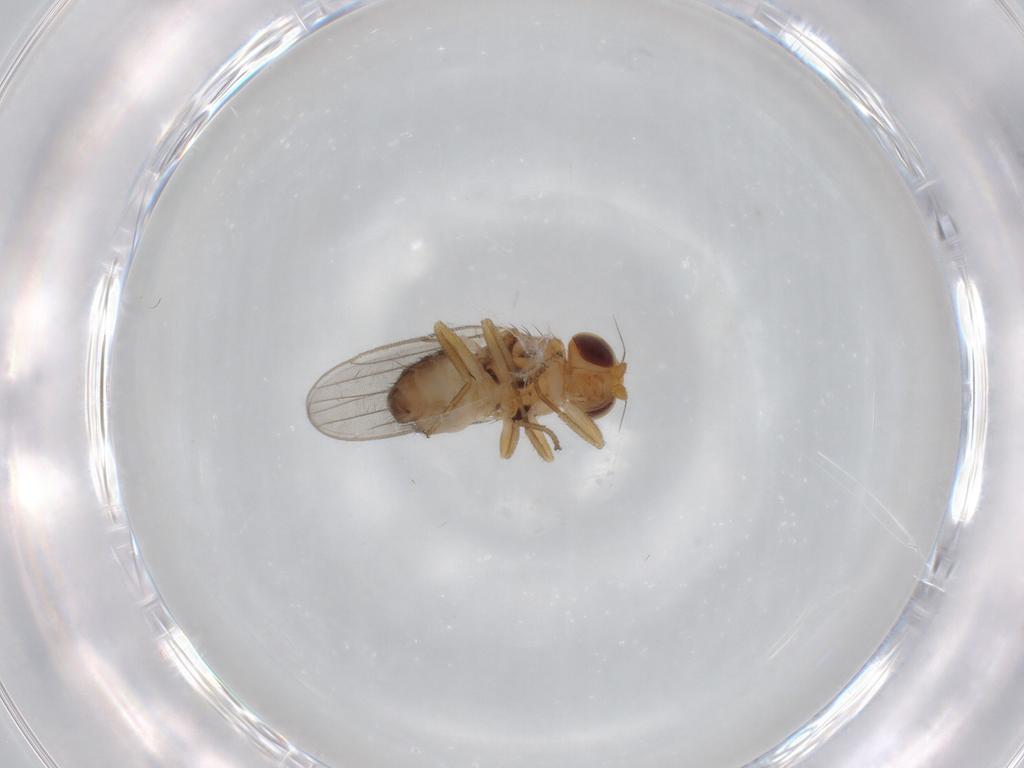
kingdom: Animalia
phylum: Arthropoda
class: Insecta
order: Diptera
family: Chloropidae
